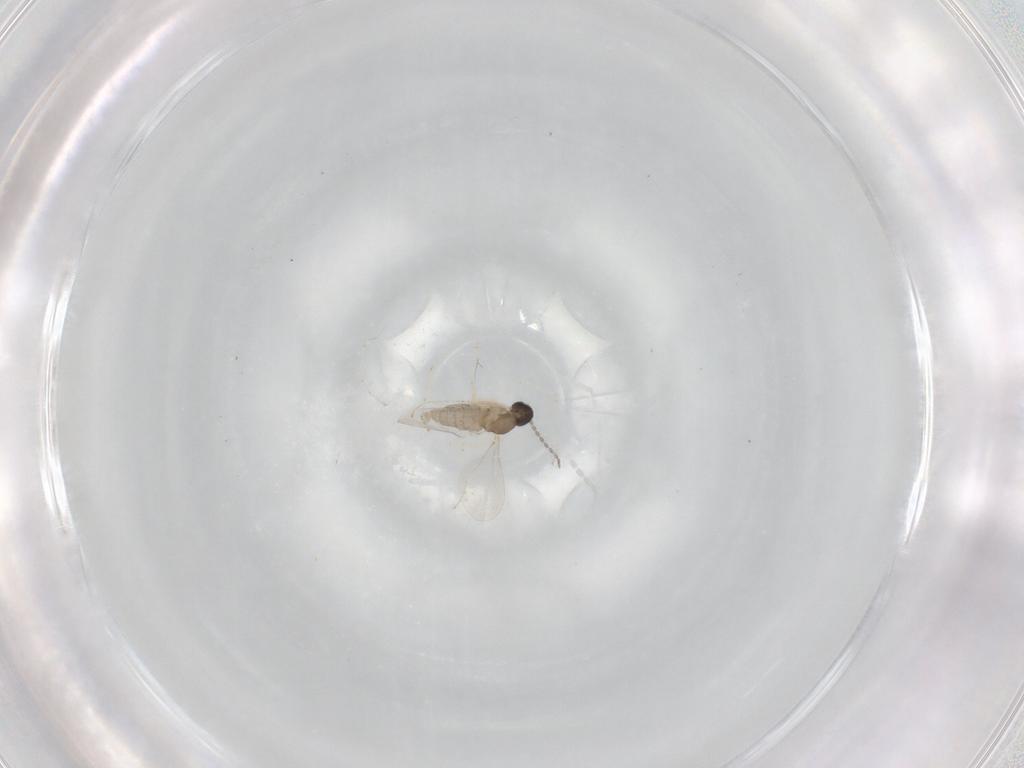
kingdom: Animalia
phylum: Arthropoda
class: Insecta
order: Diptera
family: Cecidomyiidae
